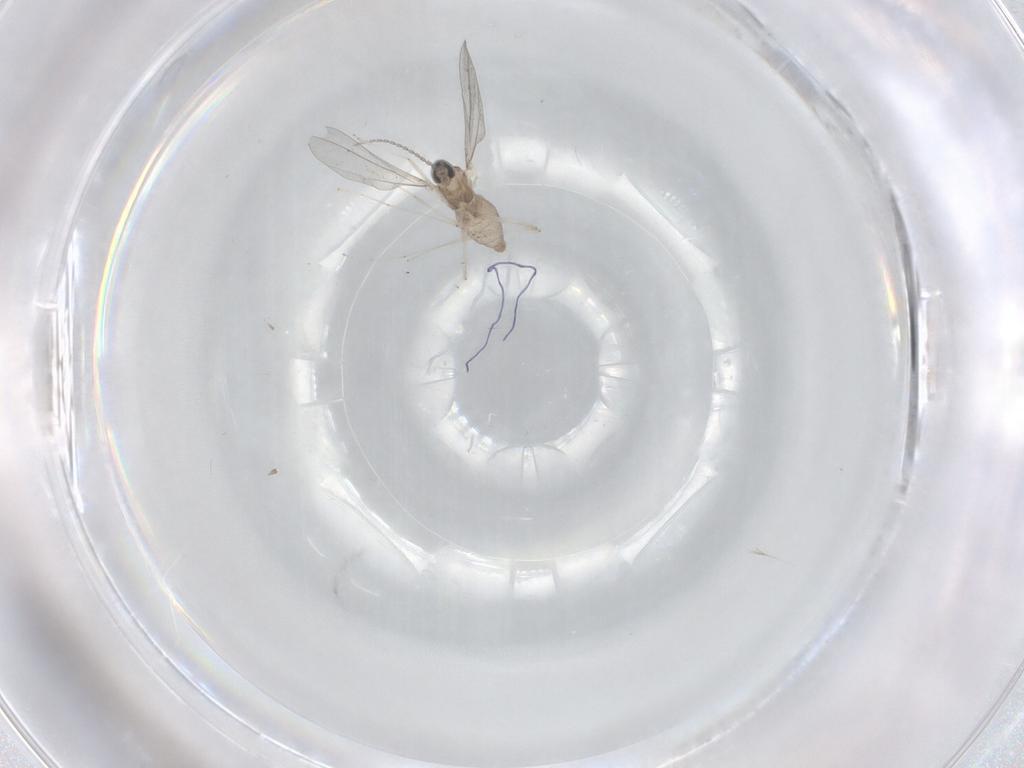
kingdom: Animalia
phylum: Arthropoda
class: Insecta
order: Diptera
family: Cecidomyiidae
